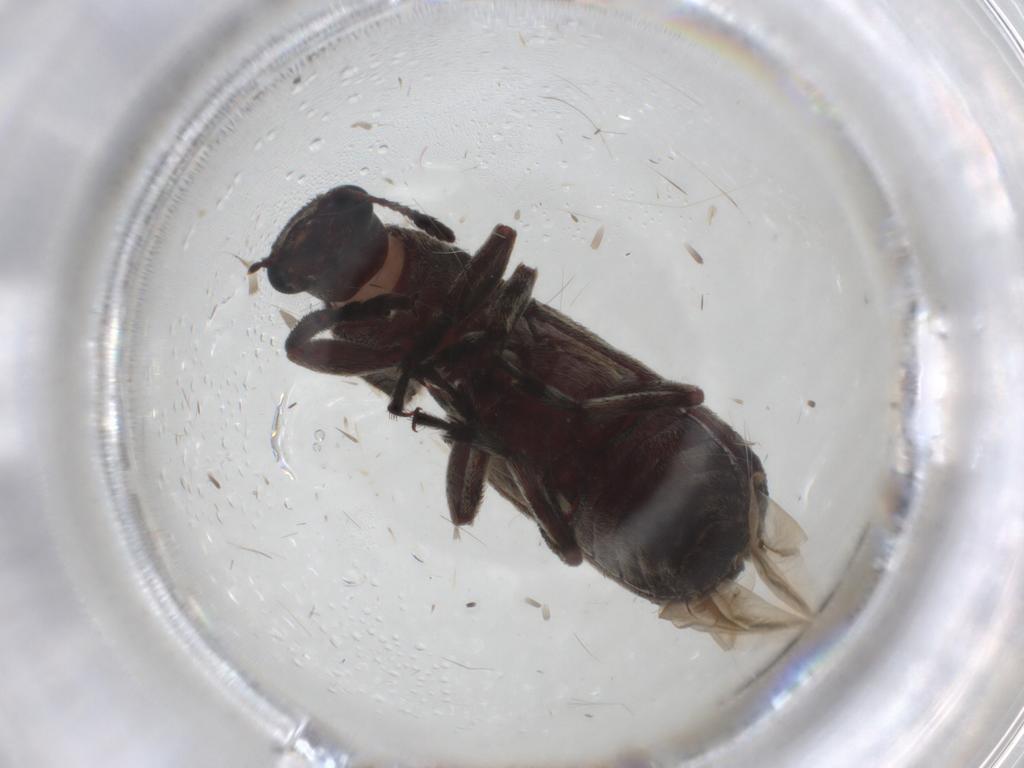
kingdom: Animalia
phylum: Arthropoda
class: Insecta
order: Coleoptera
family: Anthribidae
